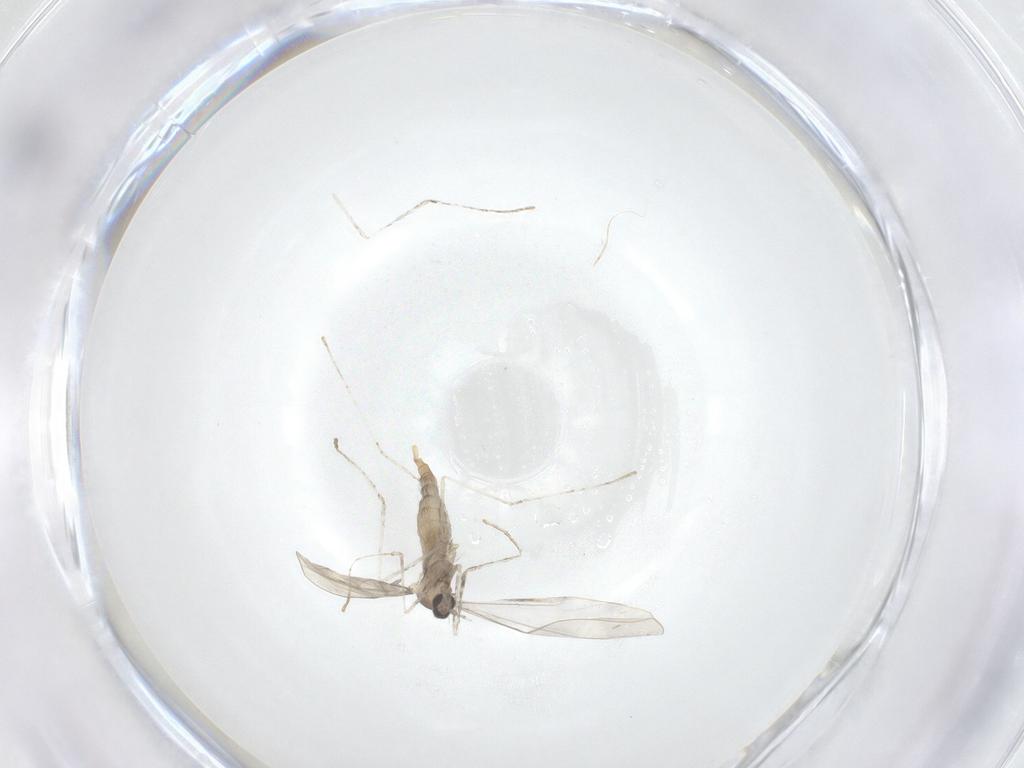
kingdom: Animalia
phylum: Arthropoda
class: Insecta
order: Diptera
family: Cecidomyiidae
